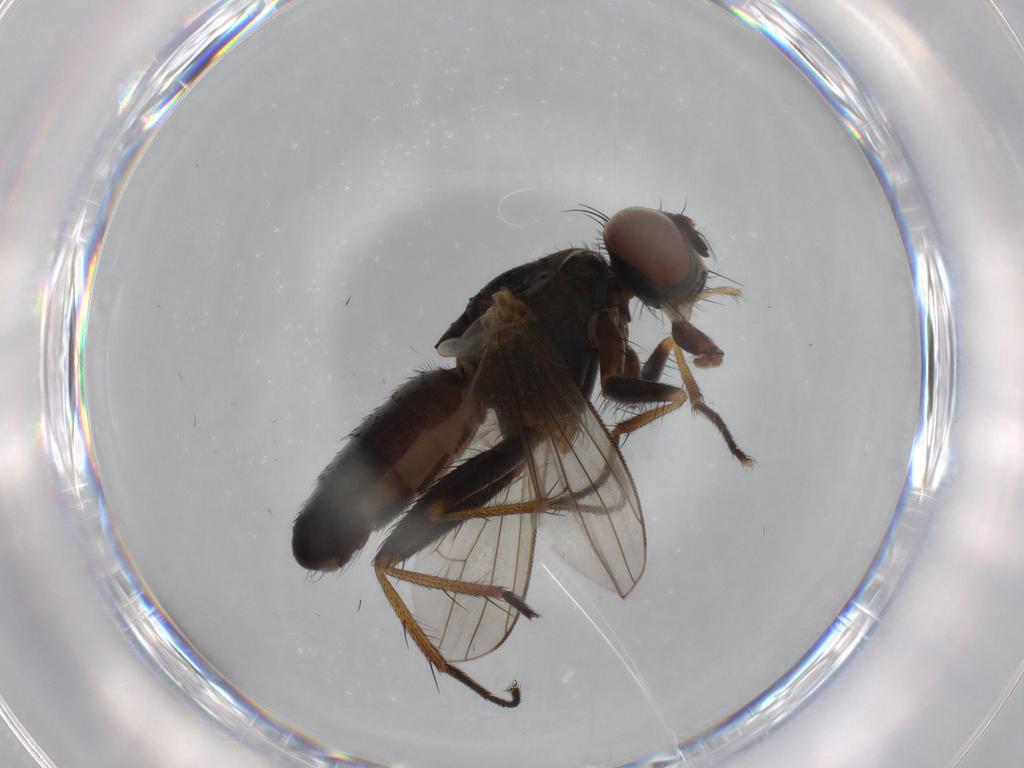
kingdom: Animalia
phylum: Arthropoda
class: Insecta
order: Diptera
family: Muscidae
